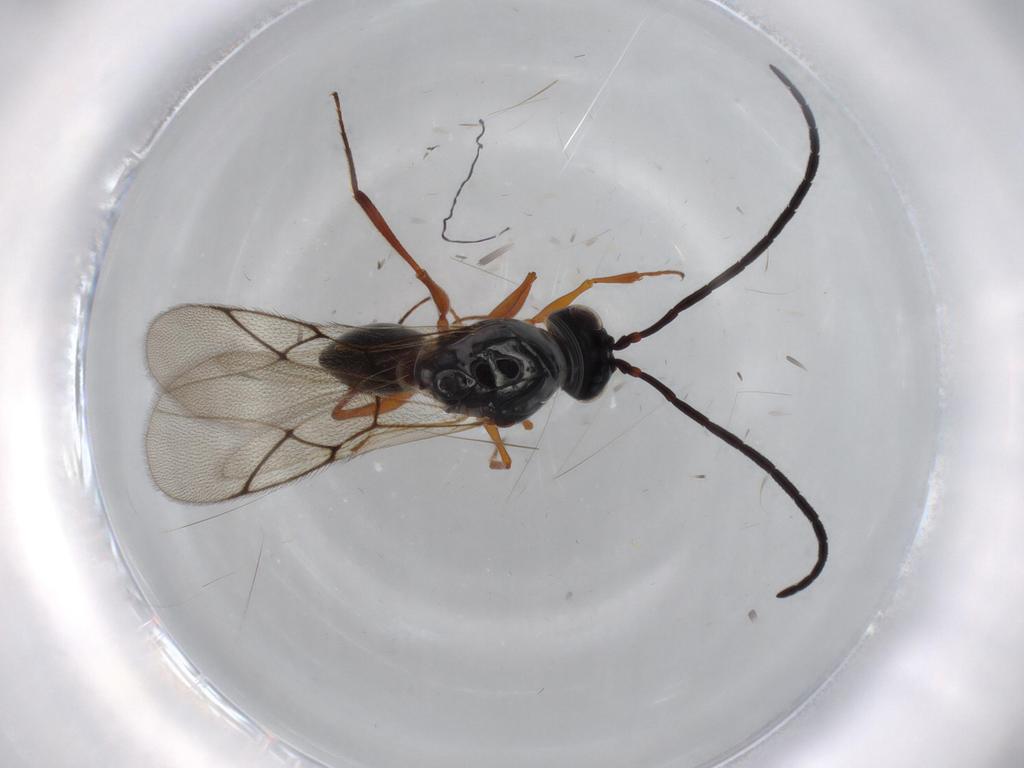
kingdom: Animalia
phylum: Arthropoda
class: Insecta
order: Hymenoptera
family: Figitidae
